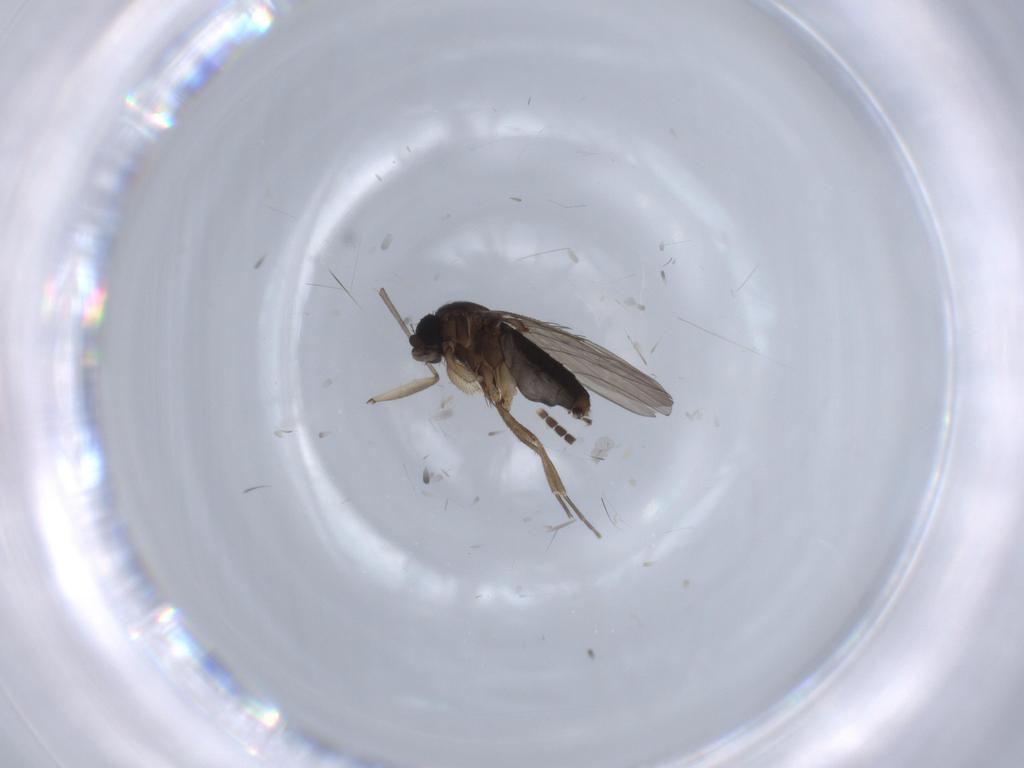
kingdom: Animalia
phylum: Arthropoda
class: Insecta
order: Diptera
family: Phoridae
